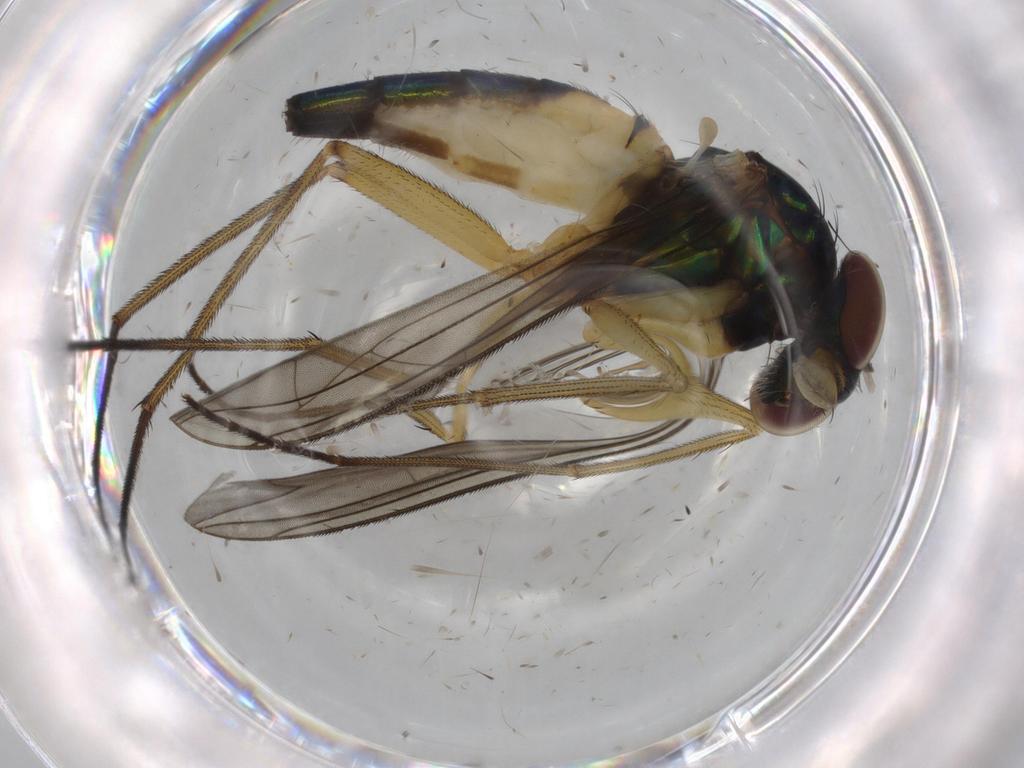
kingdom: Animalia
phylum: Arthropoda
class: Insecta
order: Diptera
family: Dolichopodidae
